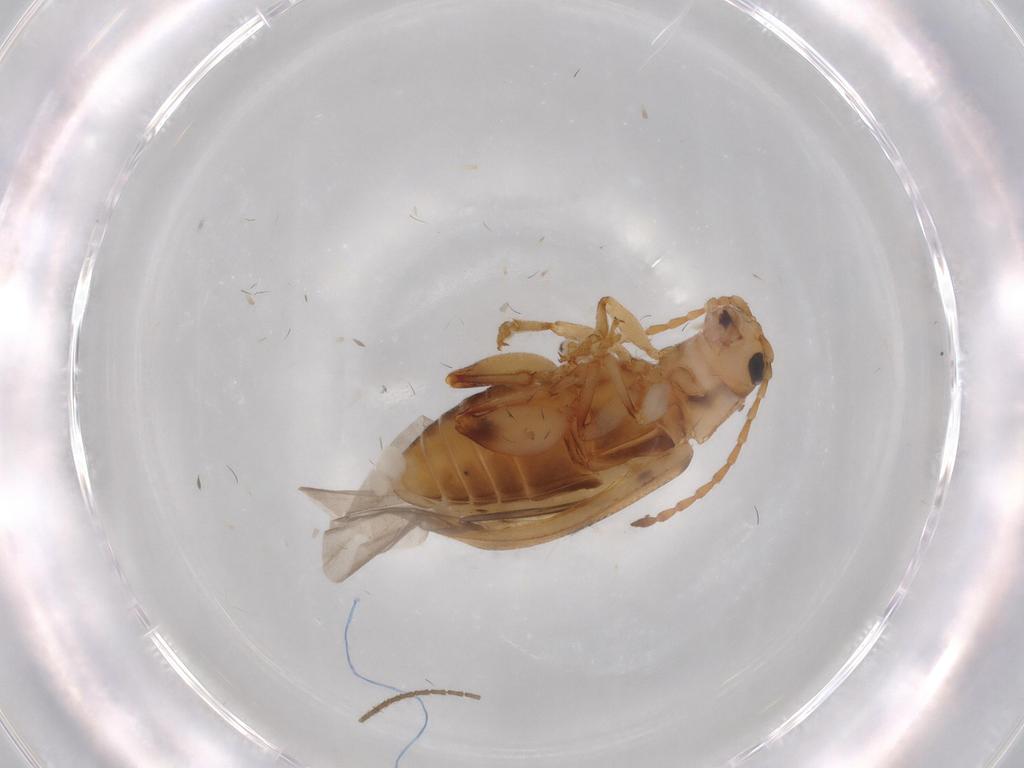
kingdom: Animalia
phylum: Arthropoda
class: Insecta
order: Coleoptera
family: Chrysomelidae
